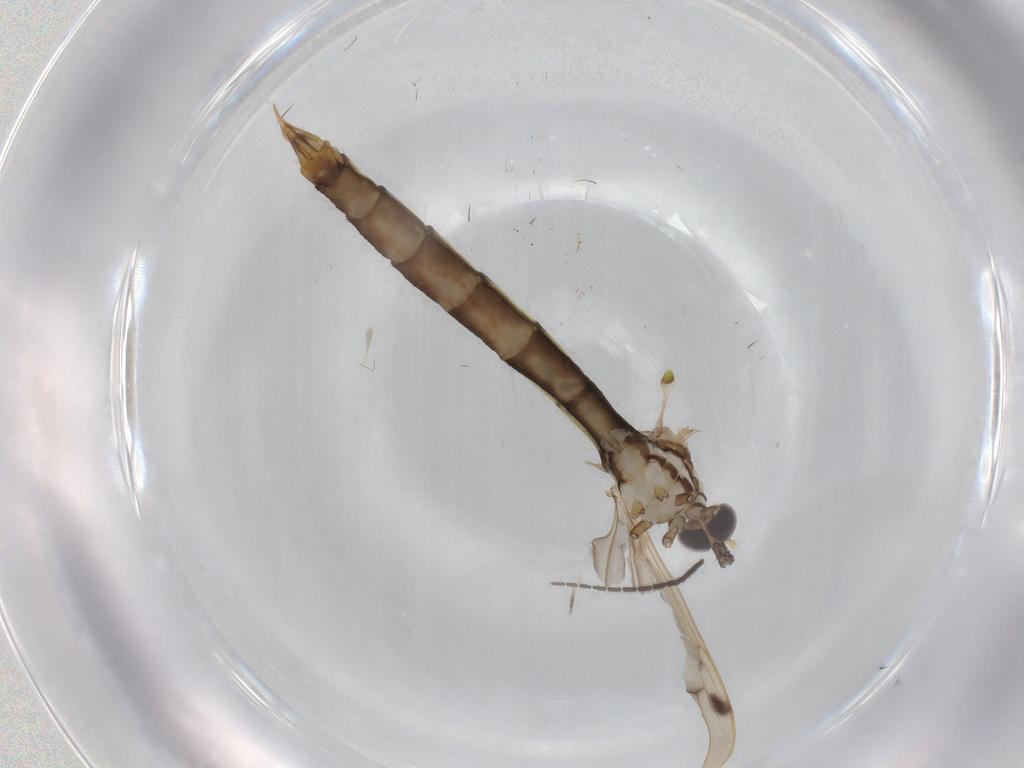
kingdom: Animalia
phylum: Arthropoda
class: Insecta
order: Diptera
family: Limoniidae
